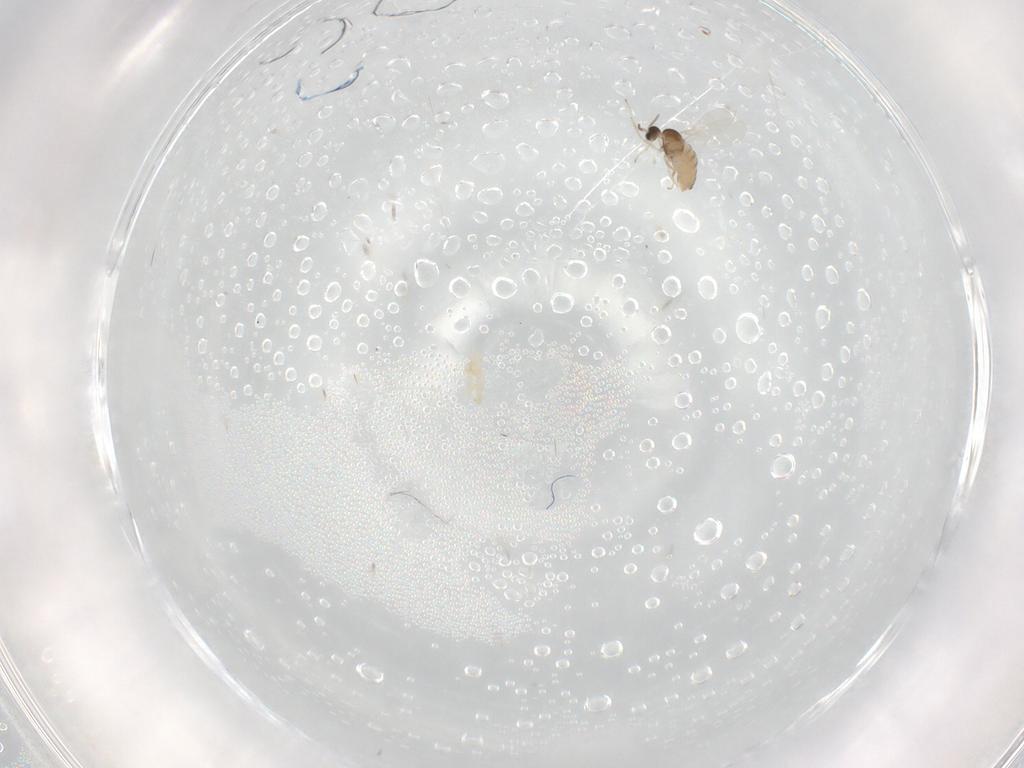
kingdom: Animalia
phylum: Arthropoda
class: Insecta
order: Diptera
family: Cecidomyiidae
